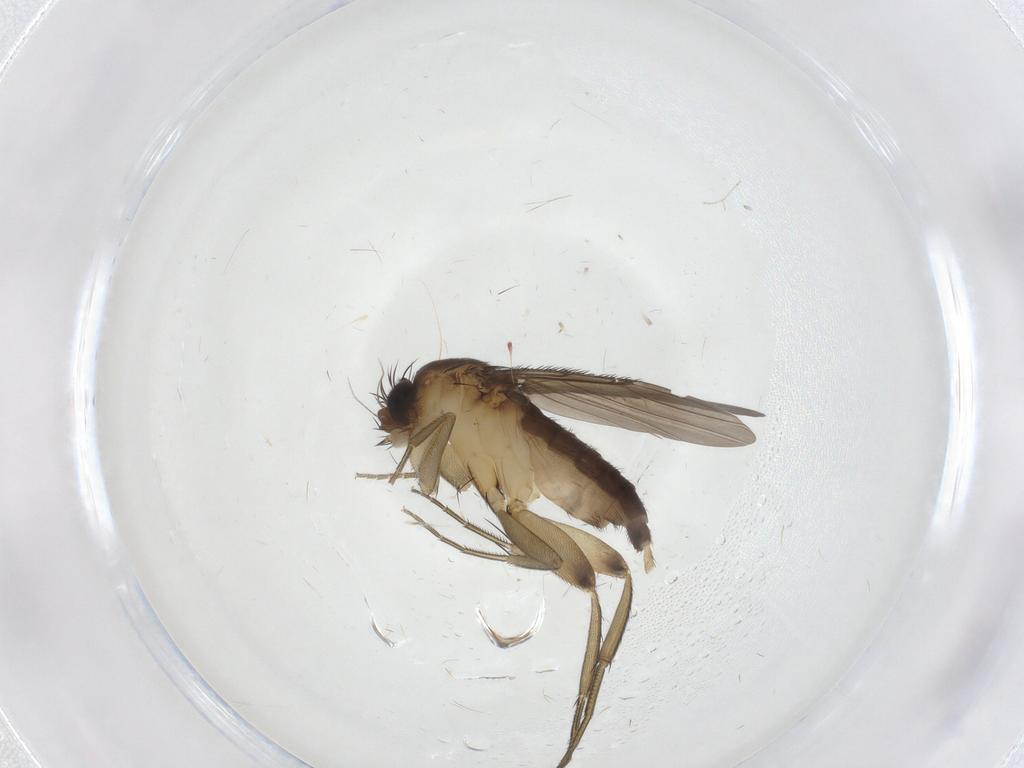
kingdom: Animalia
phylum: Arthropoda
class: Insecta
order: Diptera
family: Phoridae
